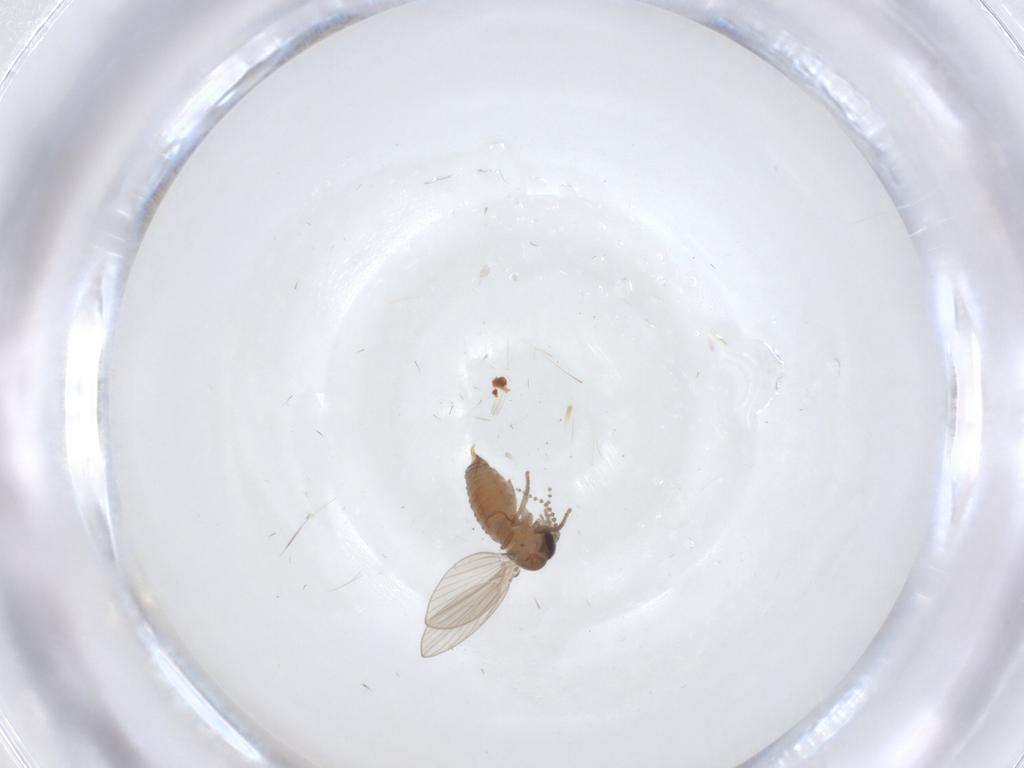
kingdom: Animalia
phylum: Arthropoda
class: Insecta
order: Diptera
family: Psychodidae
